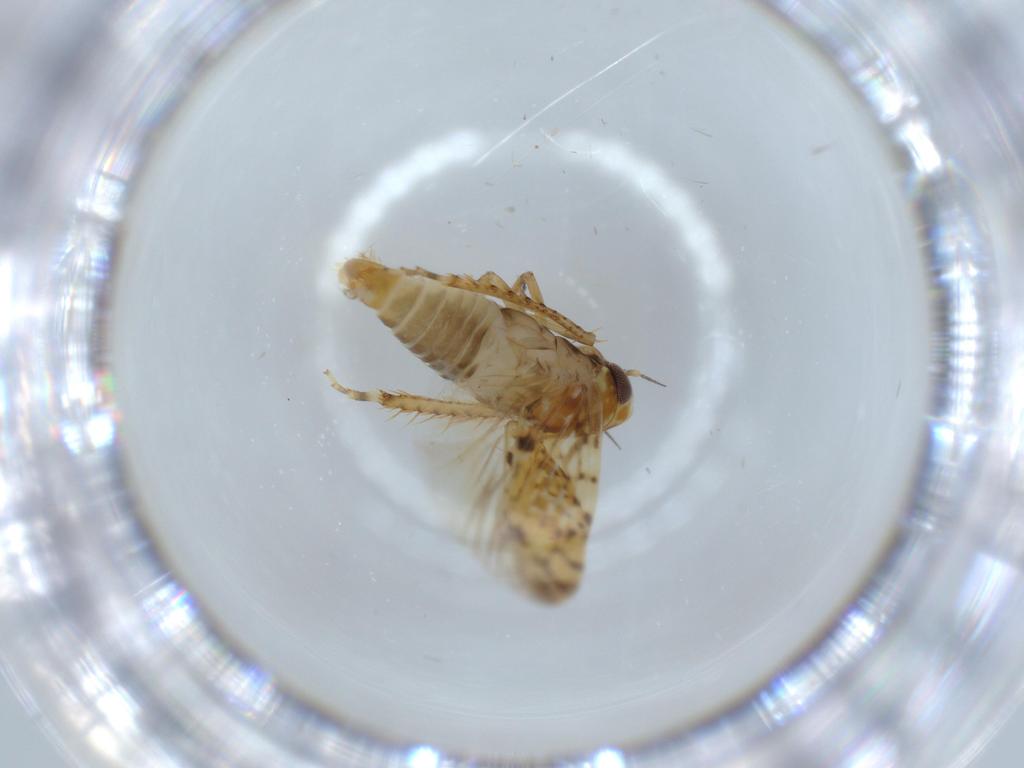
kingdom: Animalia
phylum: Arthropoda
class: Insecta
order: Hemiptera
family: Cicadellidae
